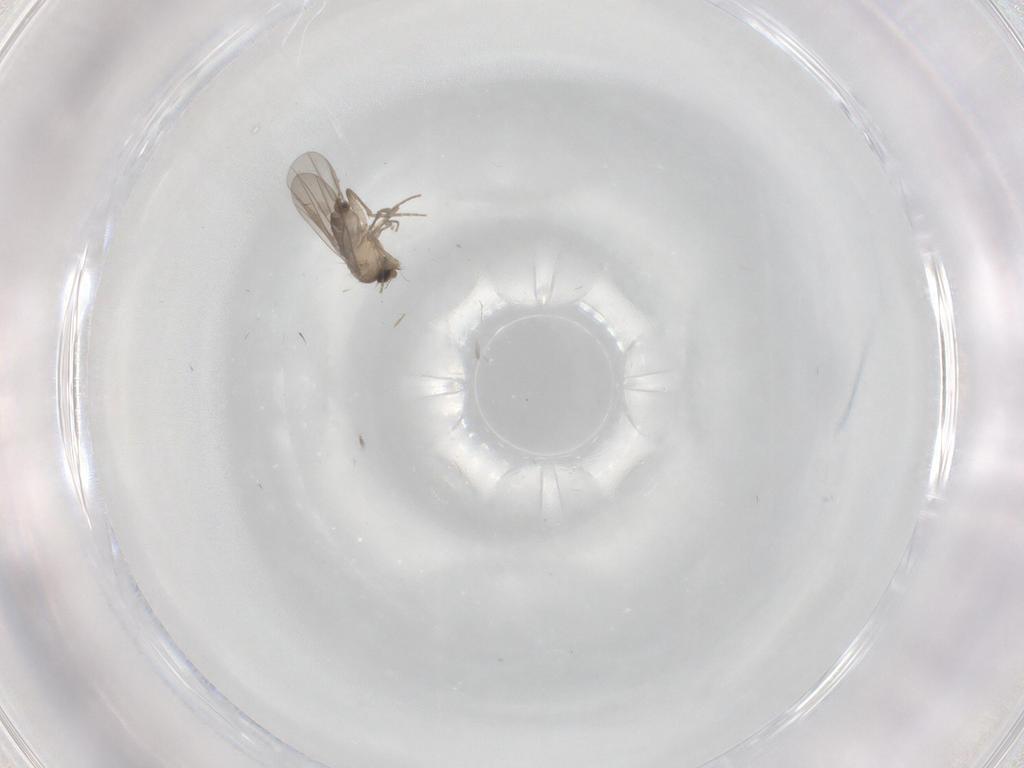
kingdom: Animalia
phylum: Arthropoda
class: Insecta
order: Diptera
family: Phoridae
